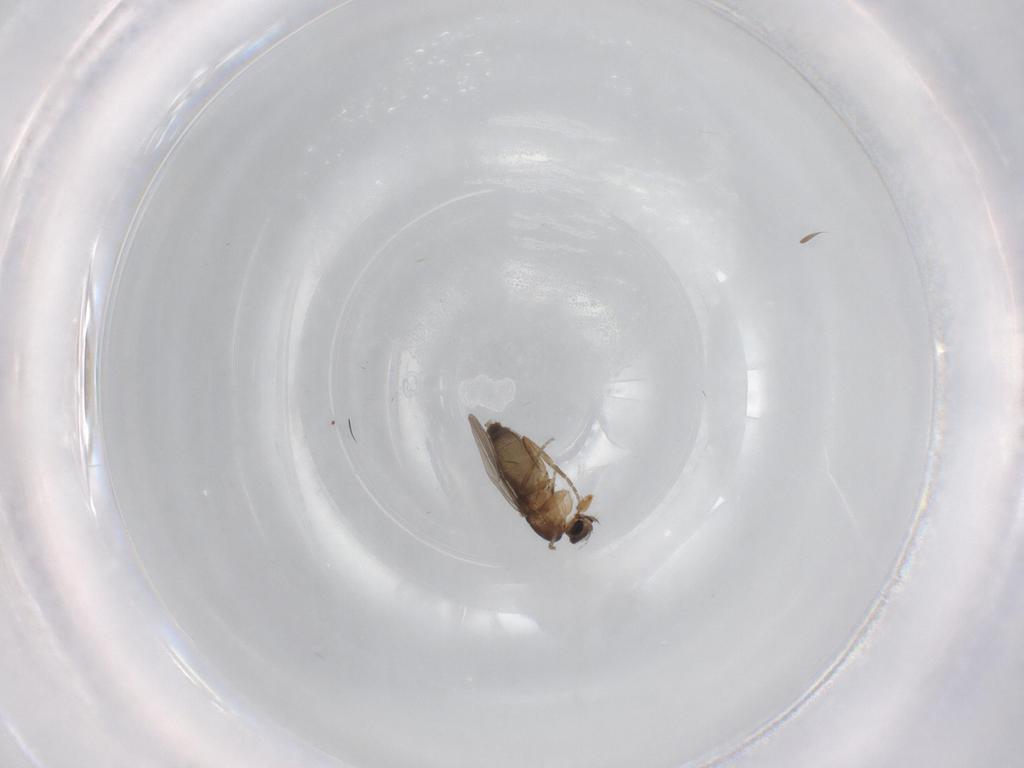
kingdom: Animalia
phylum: Arthropoda
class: Insecta
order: Diptera
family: Phoridae
